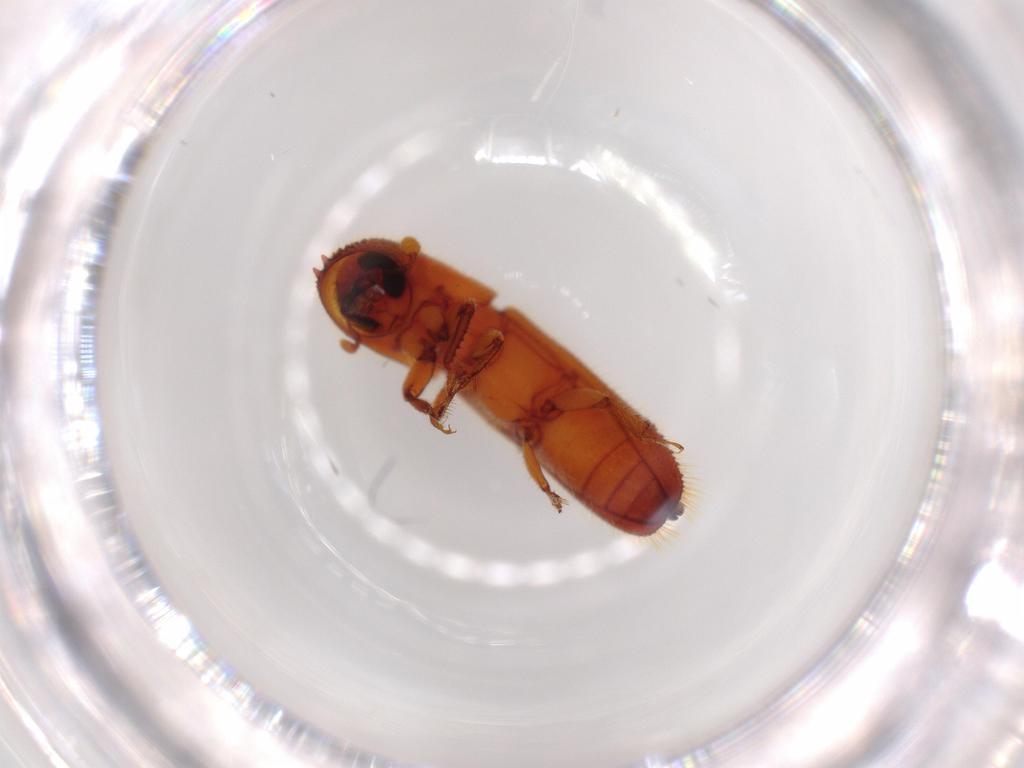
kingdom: Animalia
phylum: Arthropoda
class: Insecta
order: Coleoptera
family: Curculionidae
